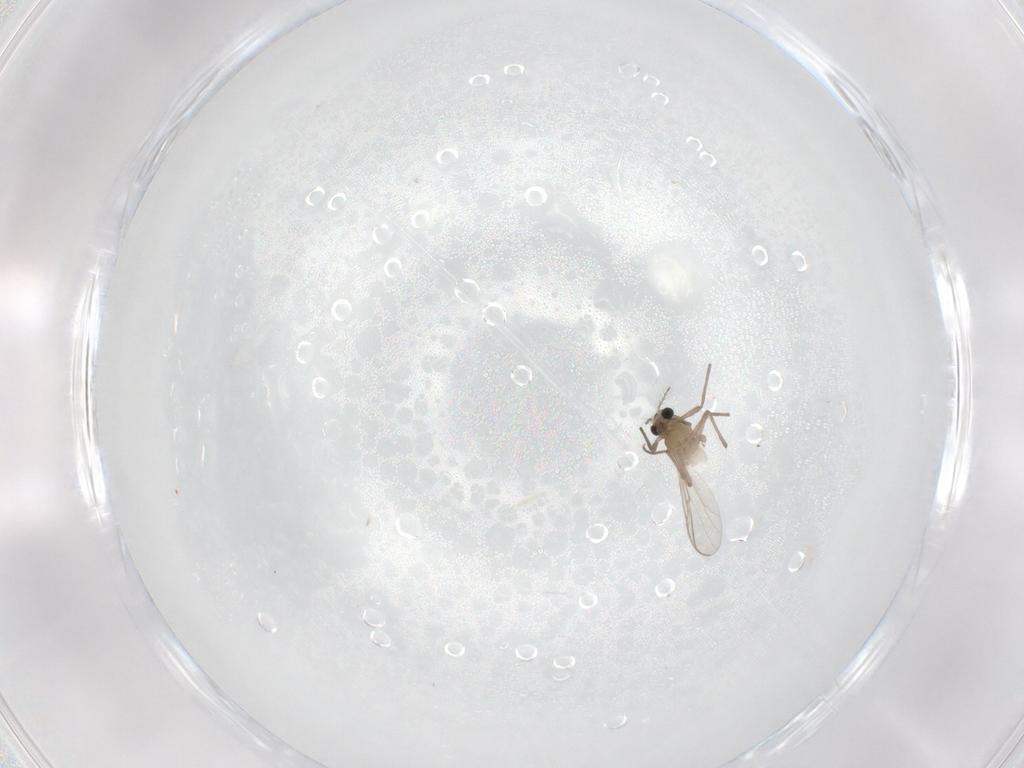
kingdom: Animalia
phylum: Arthropoda
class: Insecta
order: Diptera
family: Chironomidae
